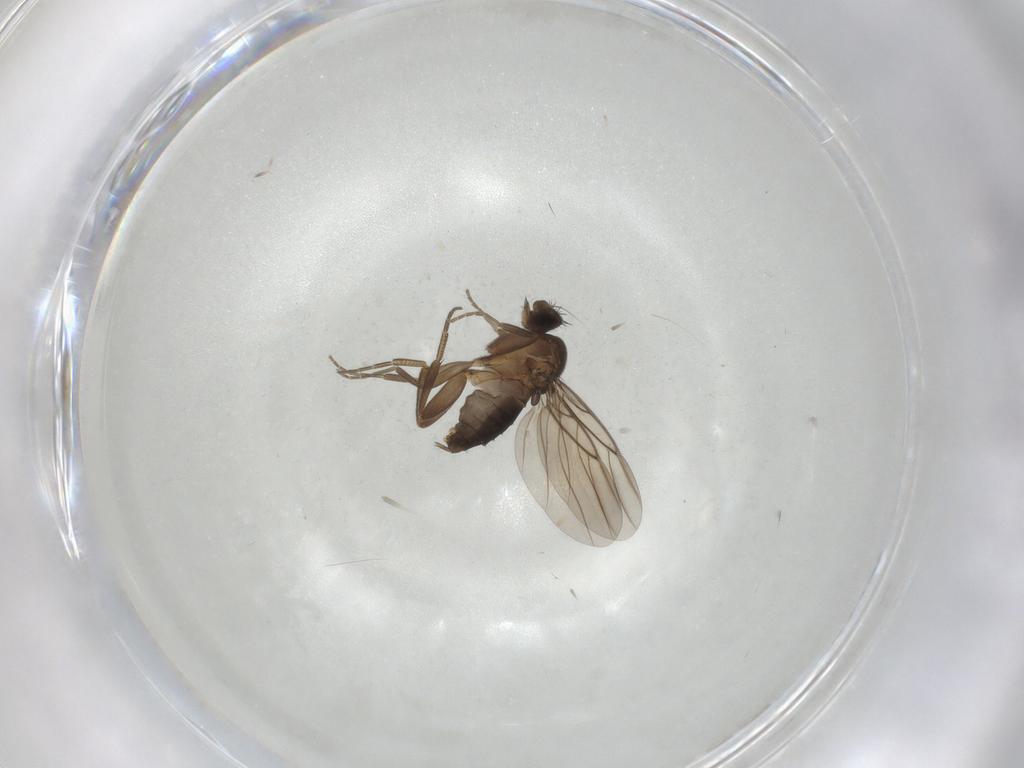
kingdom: Animalia
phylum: Arthropoda
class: Insecta
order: Diptera
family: Phoridae
